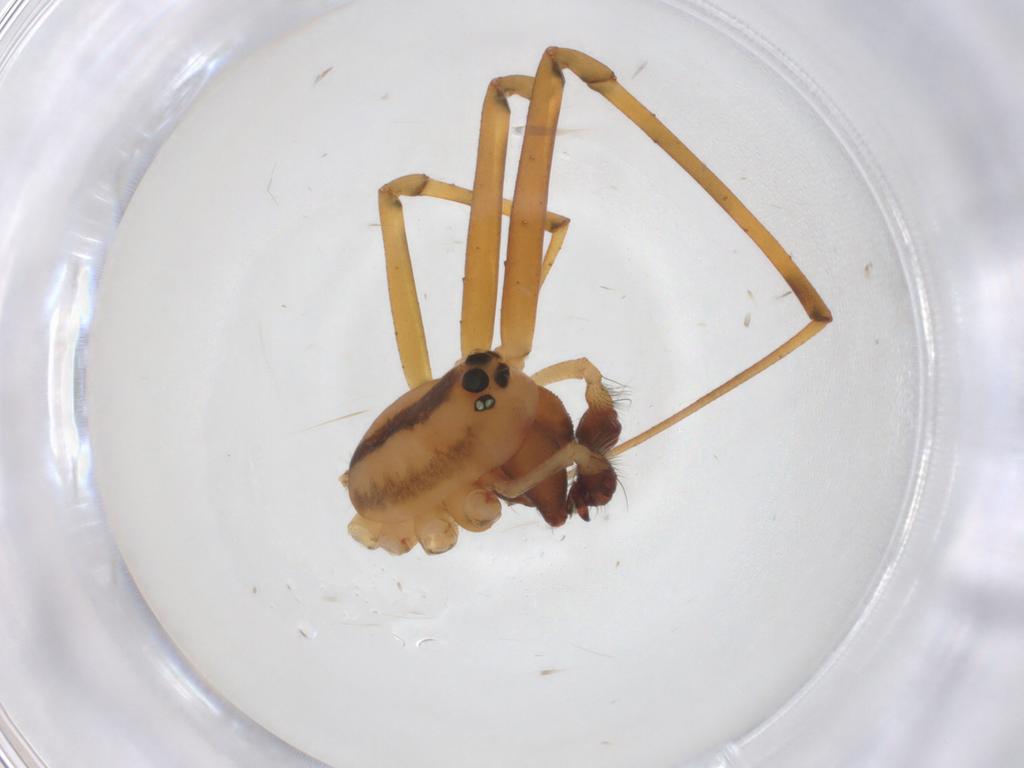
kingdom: Animalia
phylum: Arthropoda
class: Arachnida
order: Araneae
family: Linyphiidae
